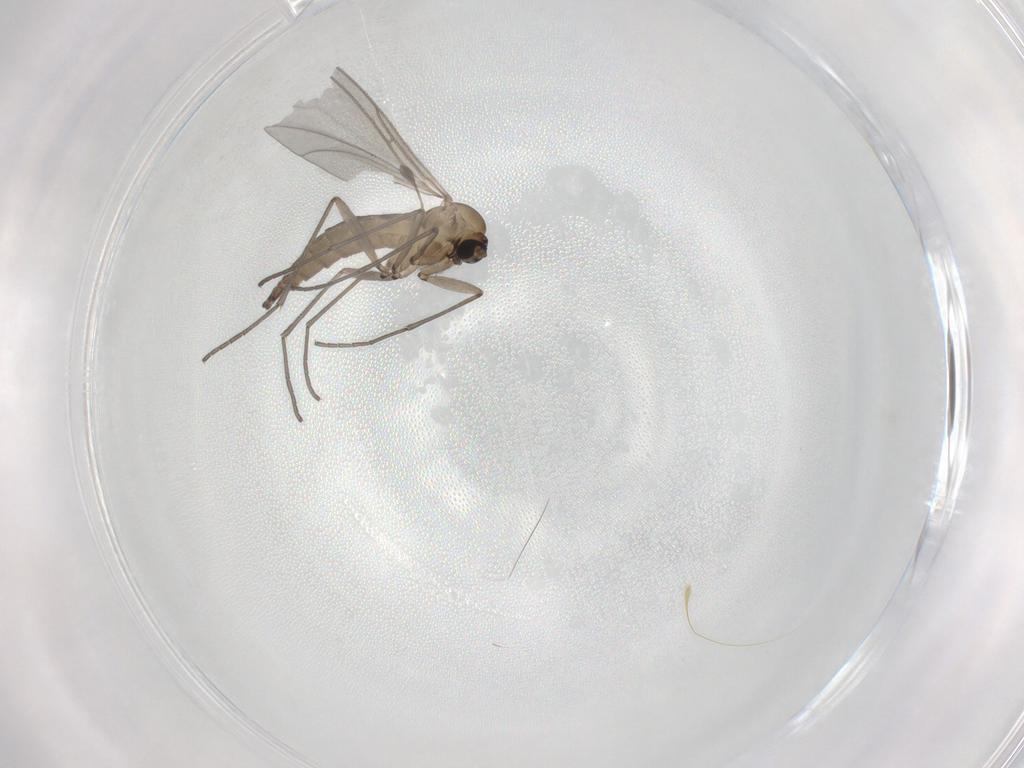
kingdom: Animalia
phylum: Arthropoda
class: Insecta
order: Diptera
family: Sciaridae
